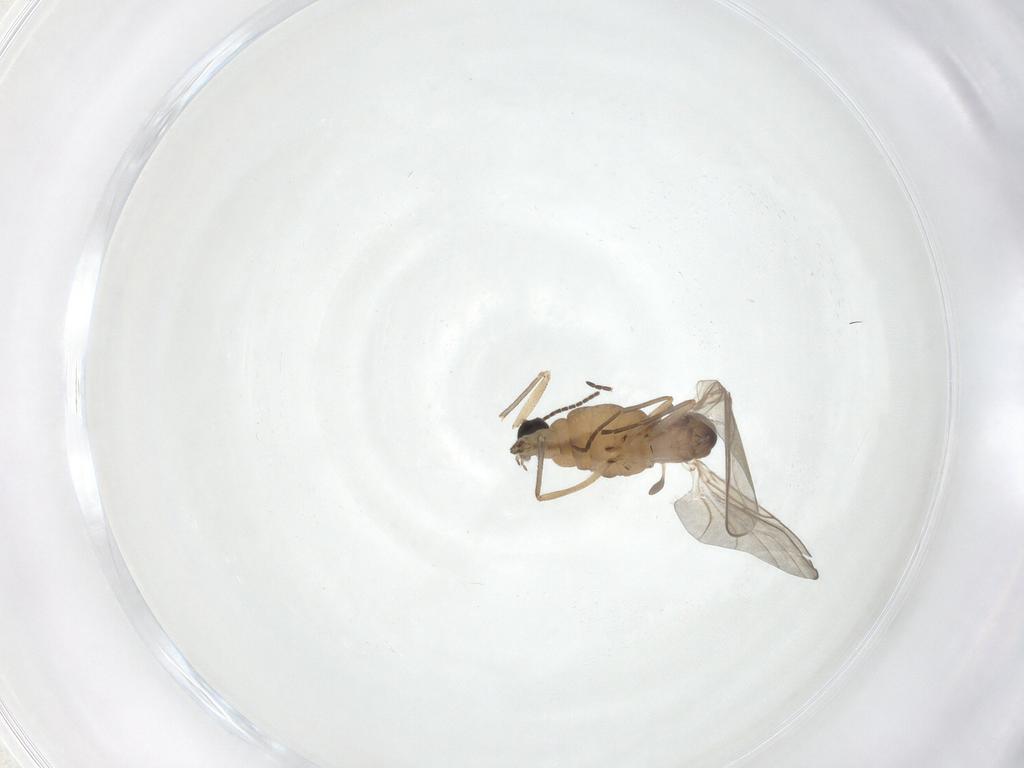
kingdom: Animalia
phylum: Arthropoda
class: Insecta
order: Diptera
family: Sciaridae
